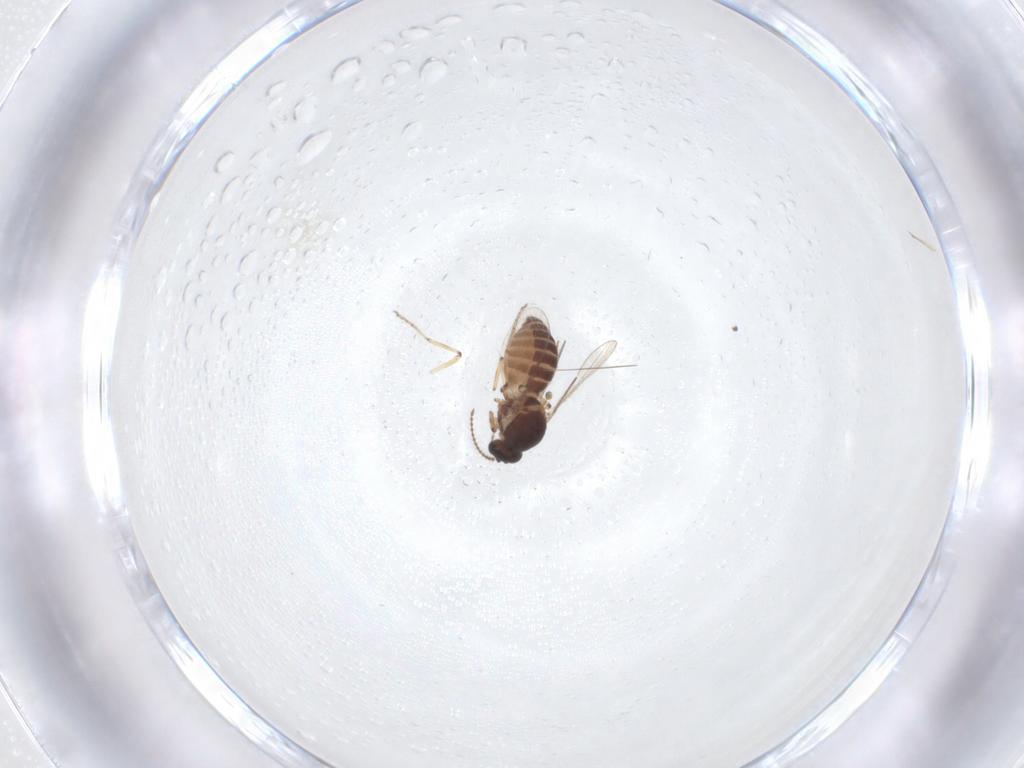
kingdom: Animalia
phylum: Arthropoda
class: Insecta
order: Diptera
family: Ceratopogonidae
